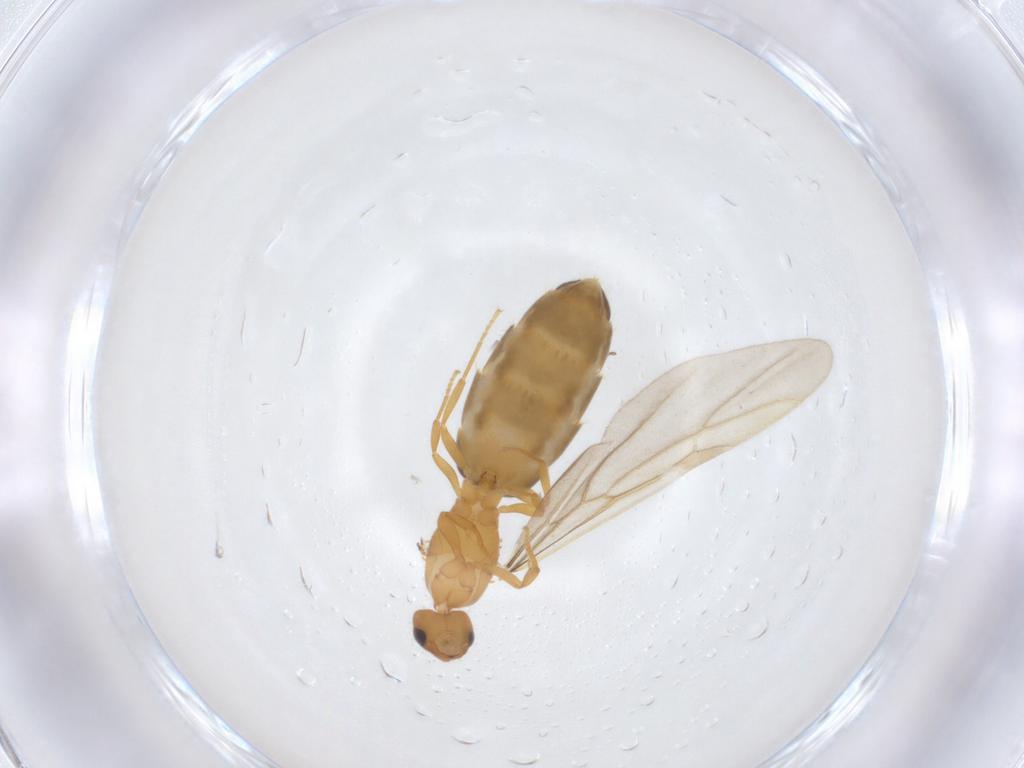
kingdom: Animalia
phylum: Arthropoda
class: Insecta
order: Hymenoptera
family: Formicidae
